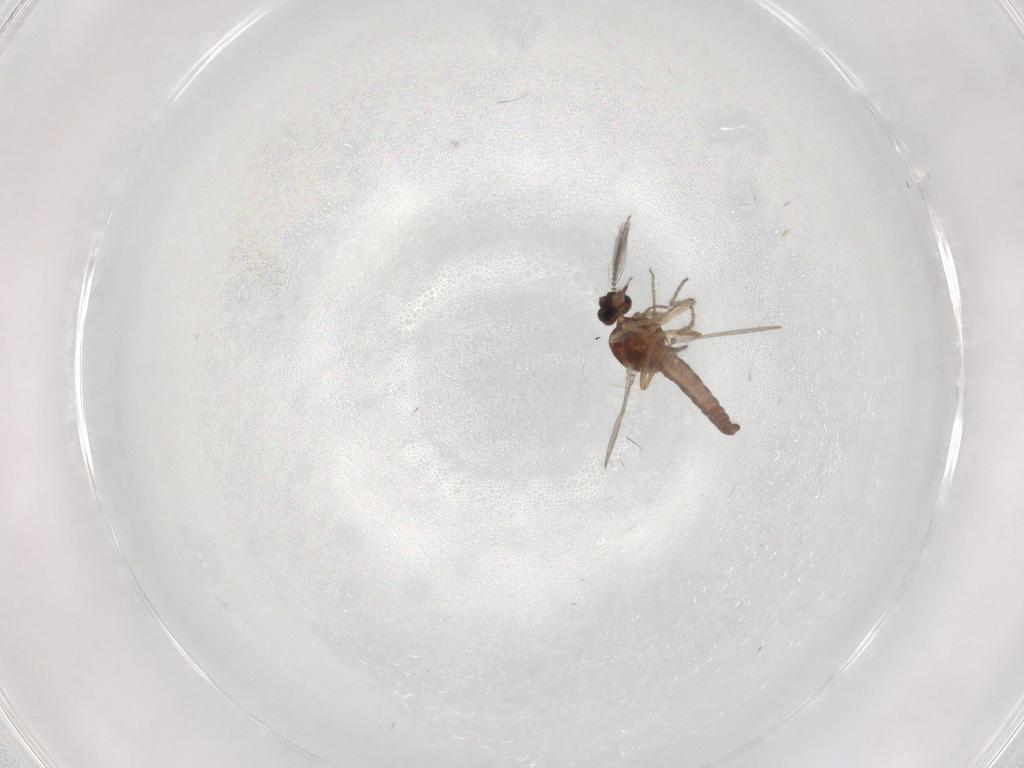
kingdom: Animalia
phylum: Arthropoda
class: Insecta
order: Diptera
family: Ceratopogonidae
